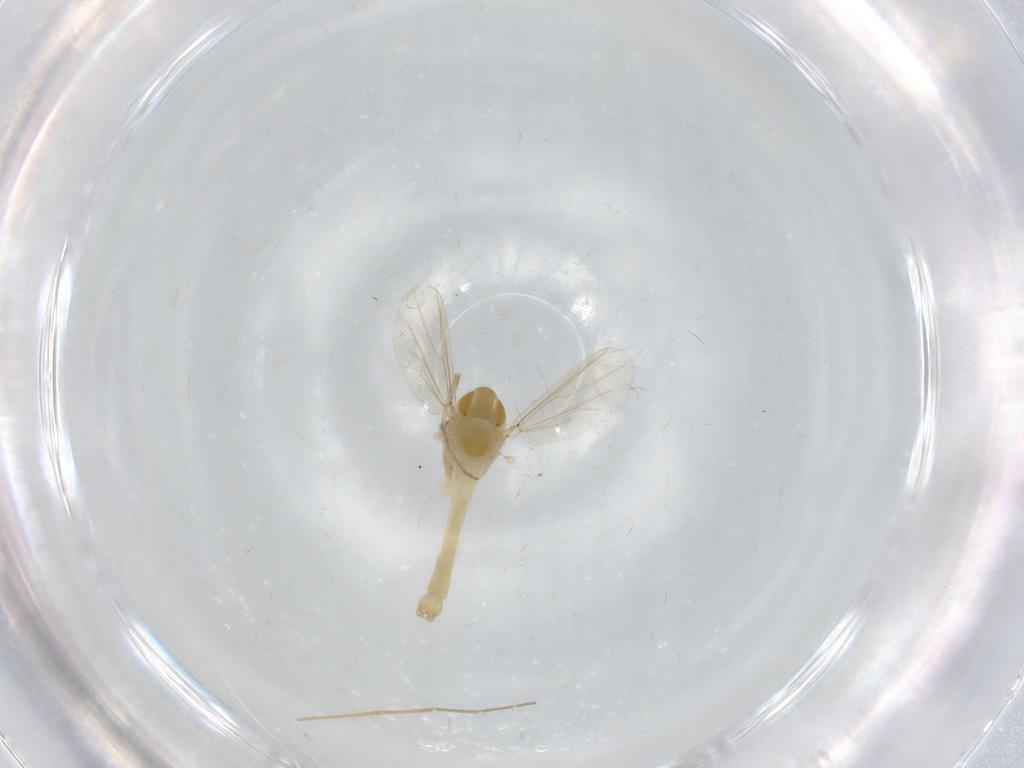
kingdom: Animalia
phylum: Arthropoda
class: Insecta
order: Diptera
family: Chironomidae
